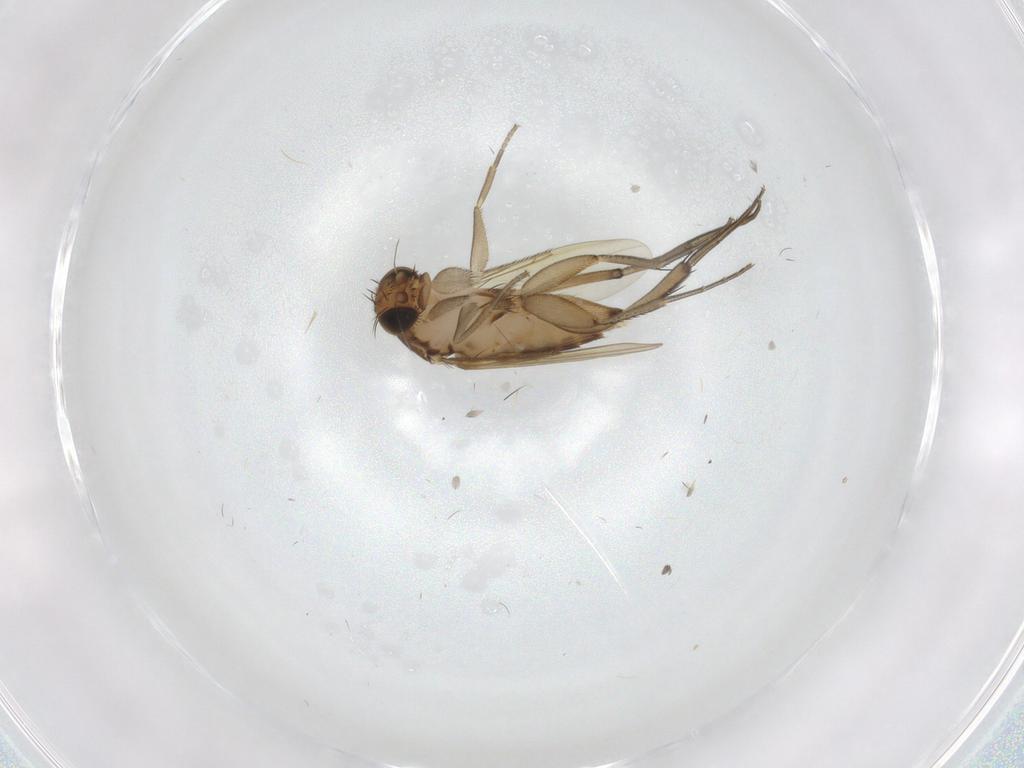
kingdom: Animalia
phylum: Arthropoda
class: Insecta
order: Diptera
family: Phoridae
